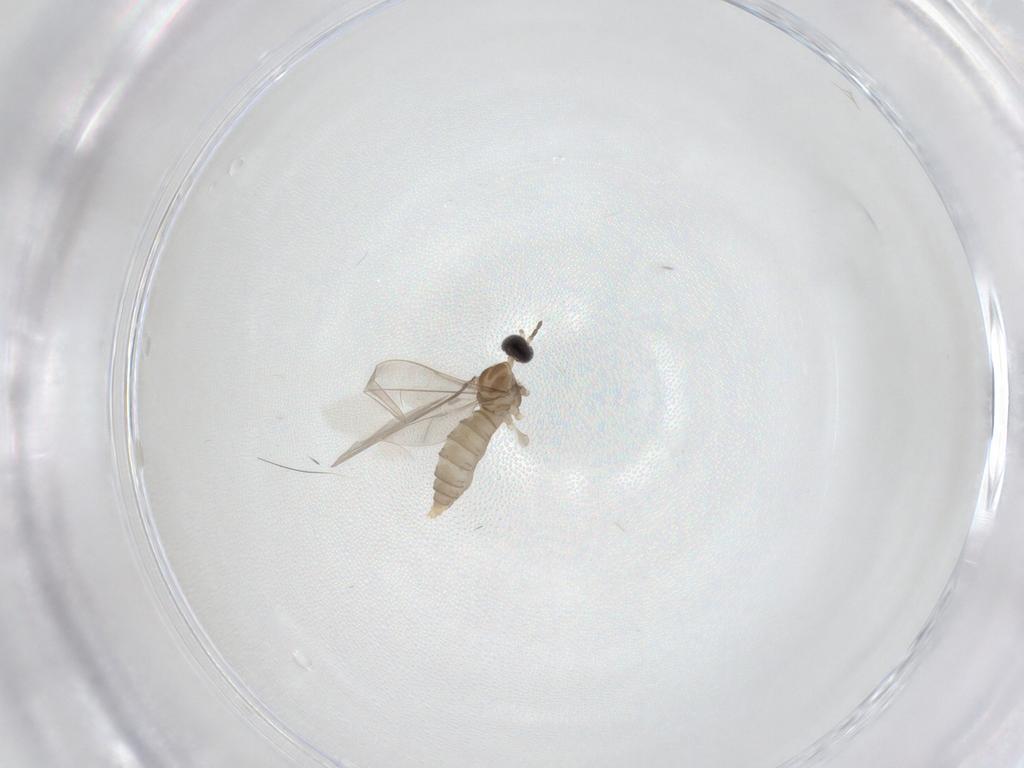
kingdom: Animalia
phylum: Arthropoda
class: Insecta
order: Diptera
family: Cecidomyiidae
